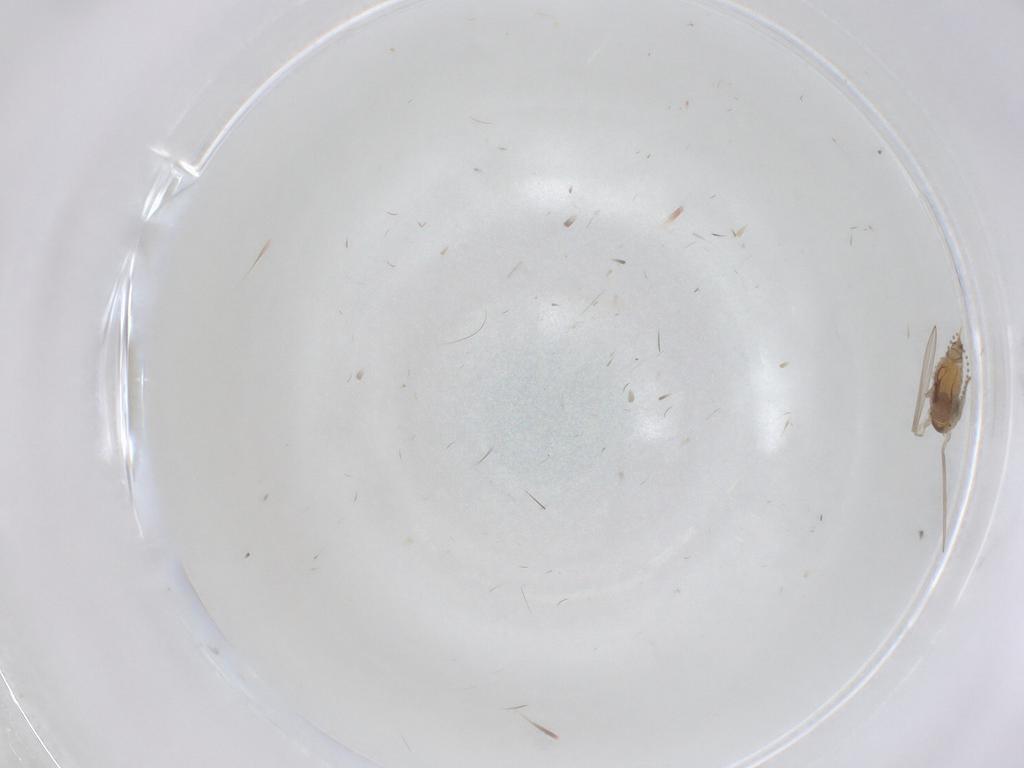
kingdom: Animalia
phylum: Arthropoda
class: Insecta
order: Diptera
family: Psychodidae
